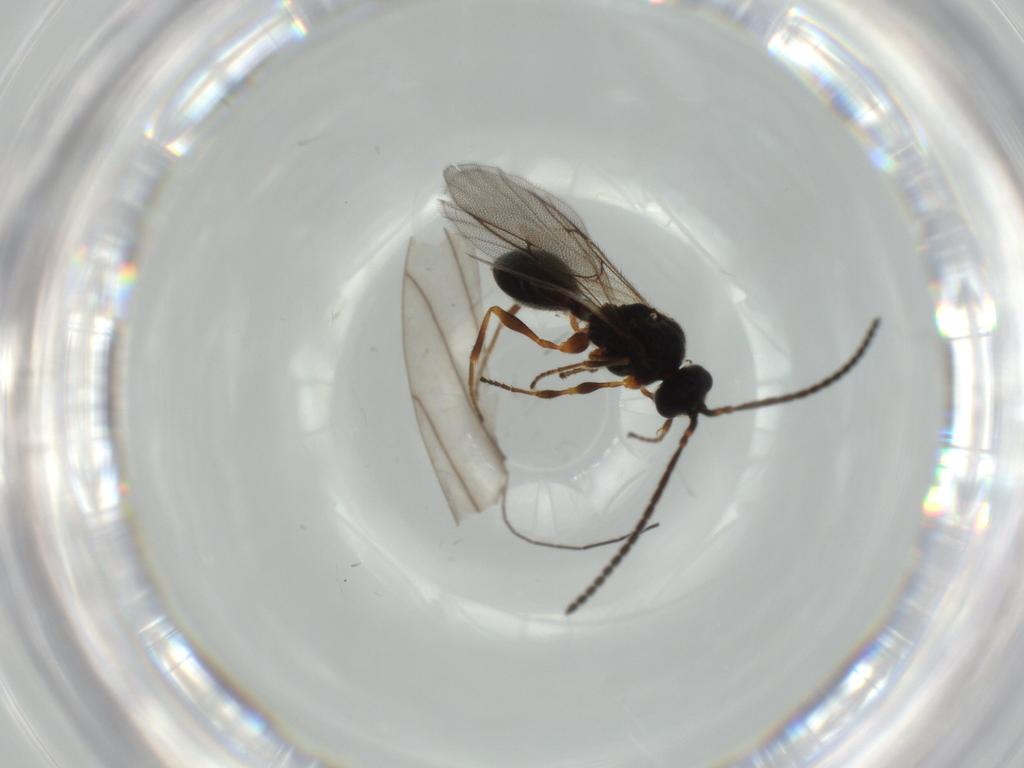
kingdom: Animalia
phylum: Arthropoda
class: Insecta
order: Hymenoptera
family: Diapriidae
